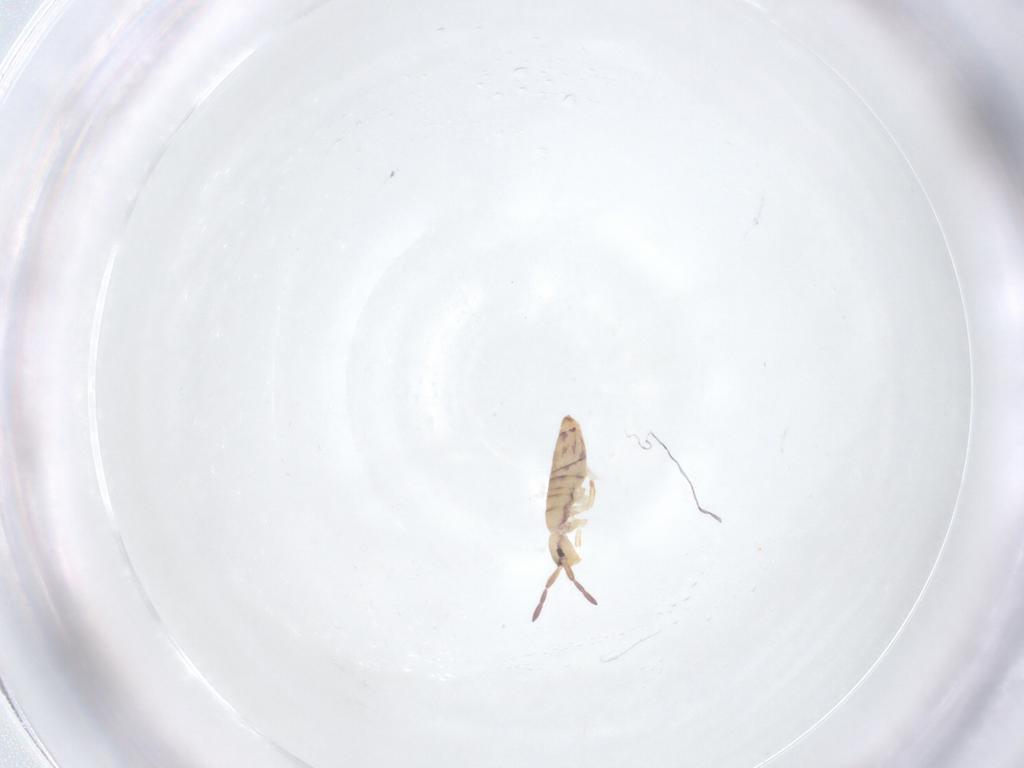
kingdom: Animalia
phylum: Arthropoda
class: Collembola
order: Entomobryomorpha
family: Entomobryidae
